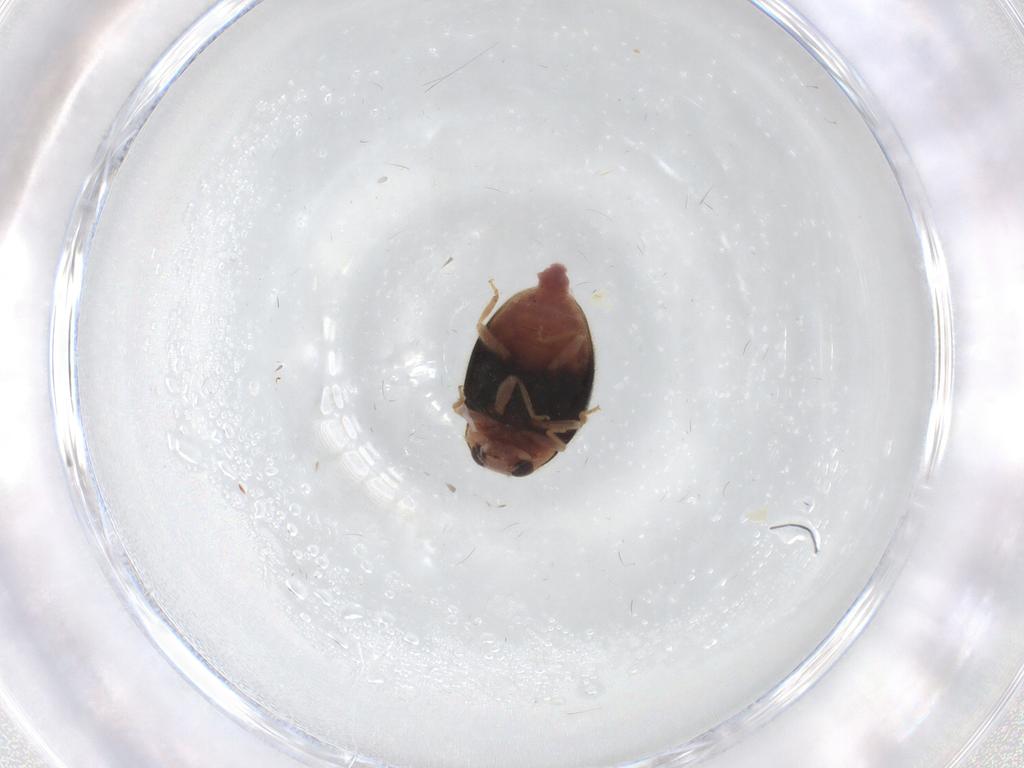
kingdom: Animalia
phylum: Arthropoda
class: Insecta
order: Coleoptera
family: Coccinellidae
